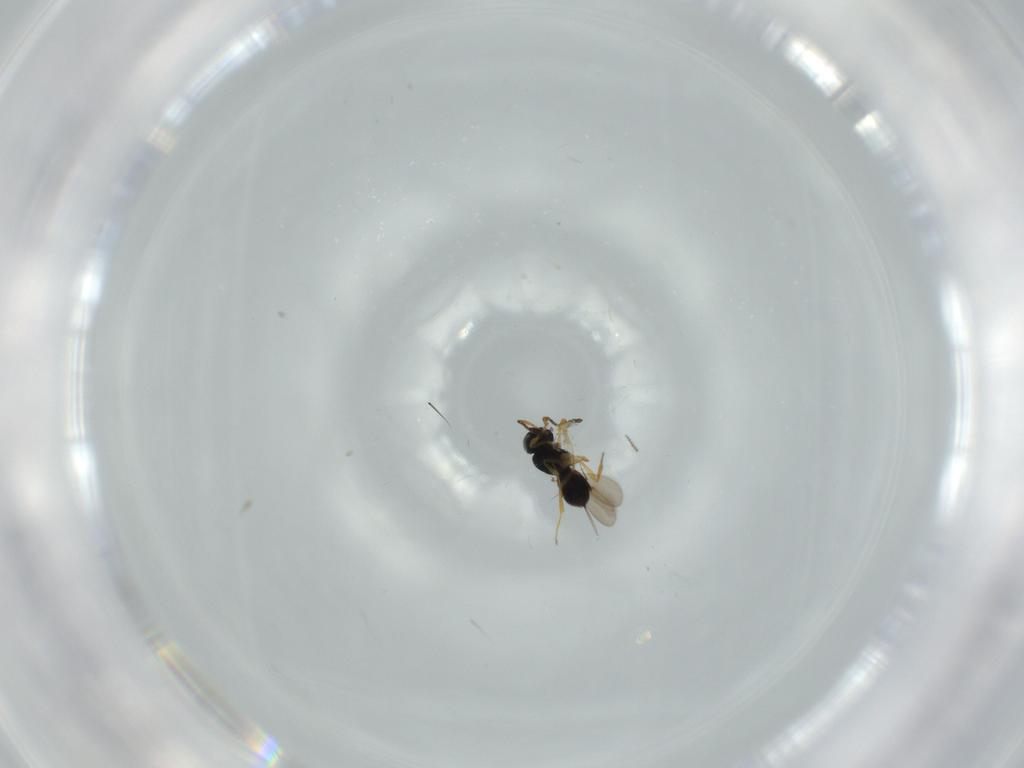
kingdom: Animalia
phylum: Arthropoda
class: Insecta
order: Hymenoptera
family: Scelionidae
